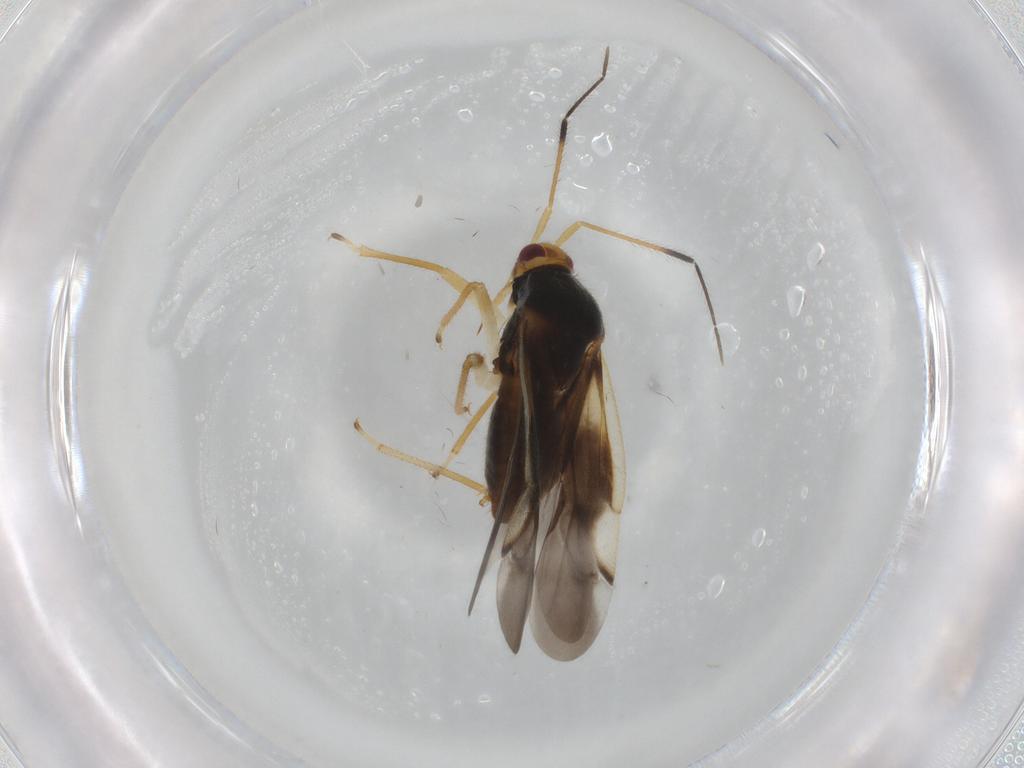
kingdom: Animalia
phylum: Arthropoda
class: Insecta
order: Hemiptera
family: Miridae
